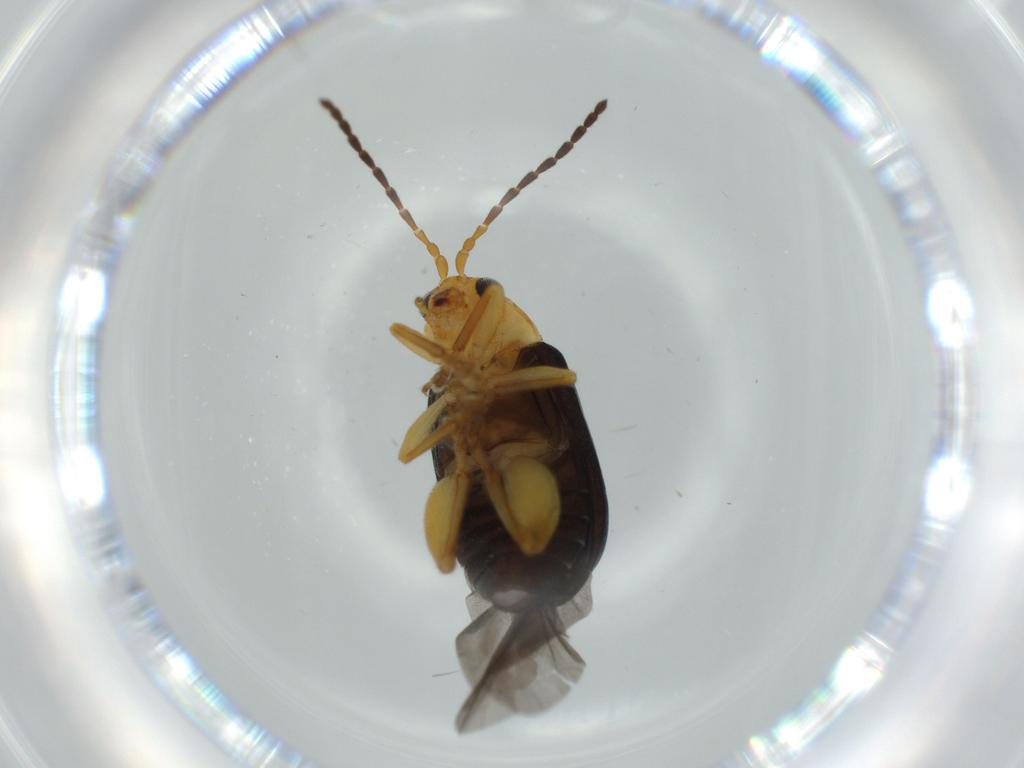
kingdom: Animalia
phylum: Arthropoda
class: Insecta
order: Coleoptera
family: Chrysomelidae
